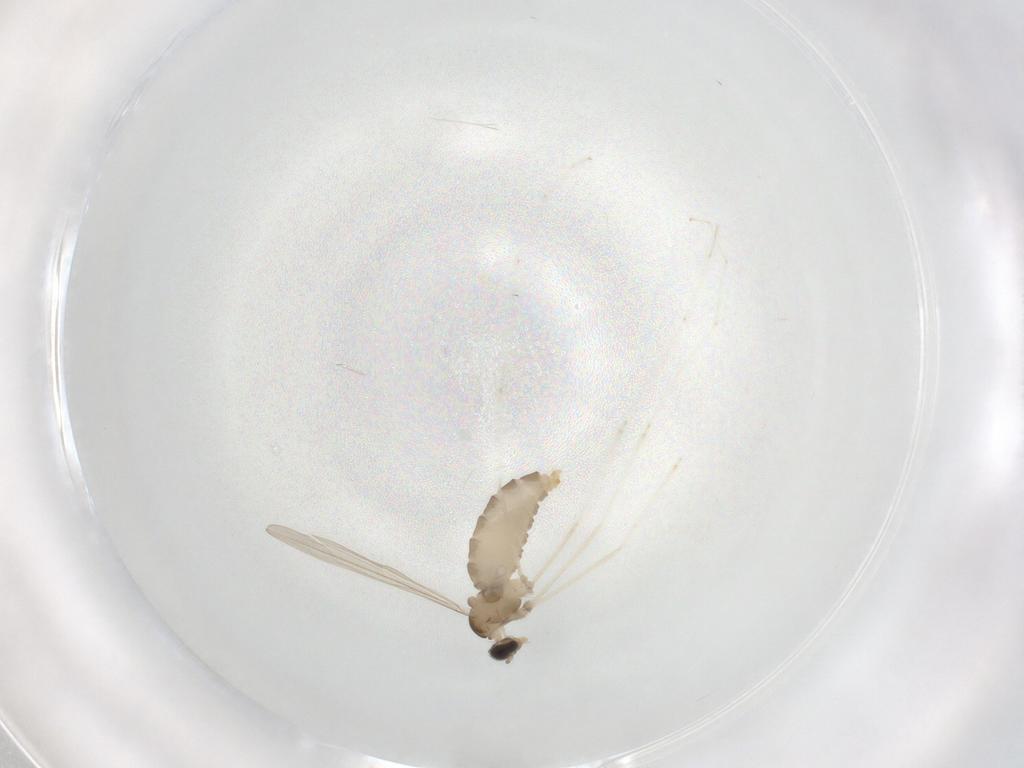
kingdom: Animalia
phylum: Arthropoda
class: Insecta
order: Diptera
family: Cecidomyiidae
